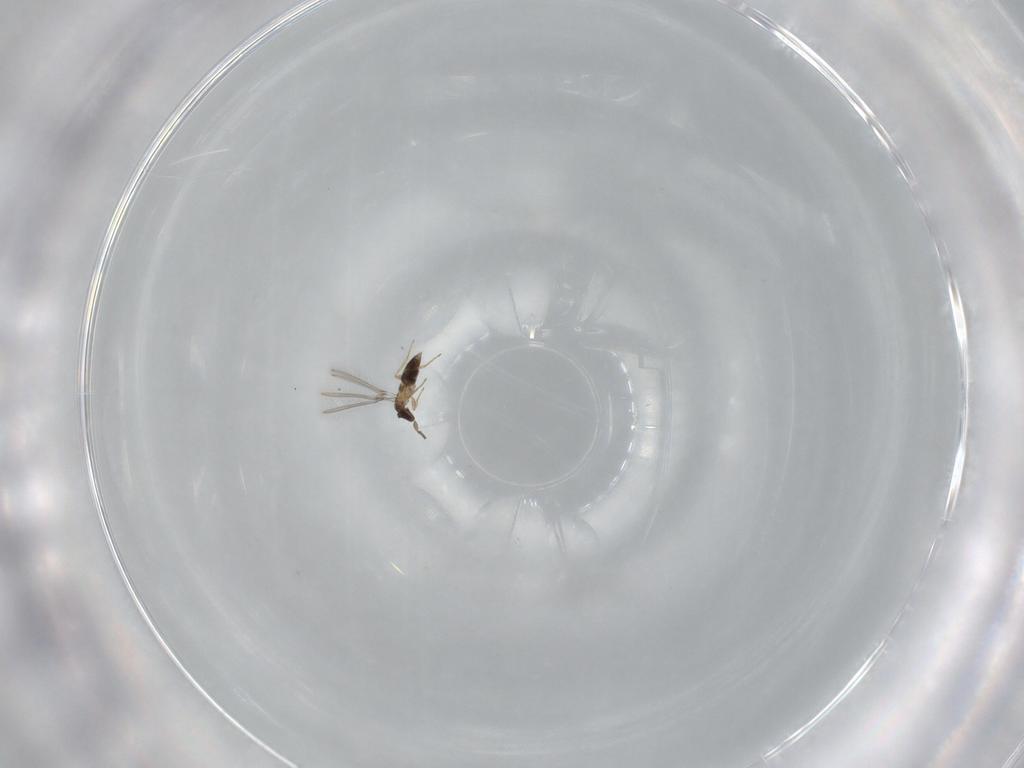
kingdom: Animalia
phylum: Arthropoda
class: Insecta
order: Hymenoptera
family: Mymaridae
